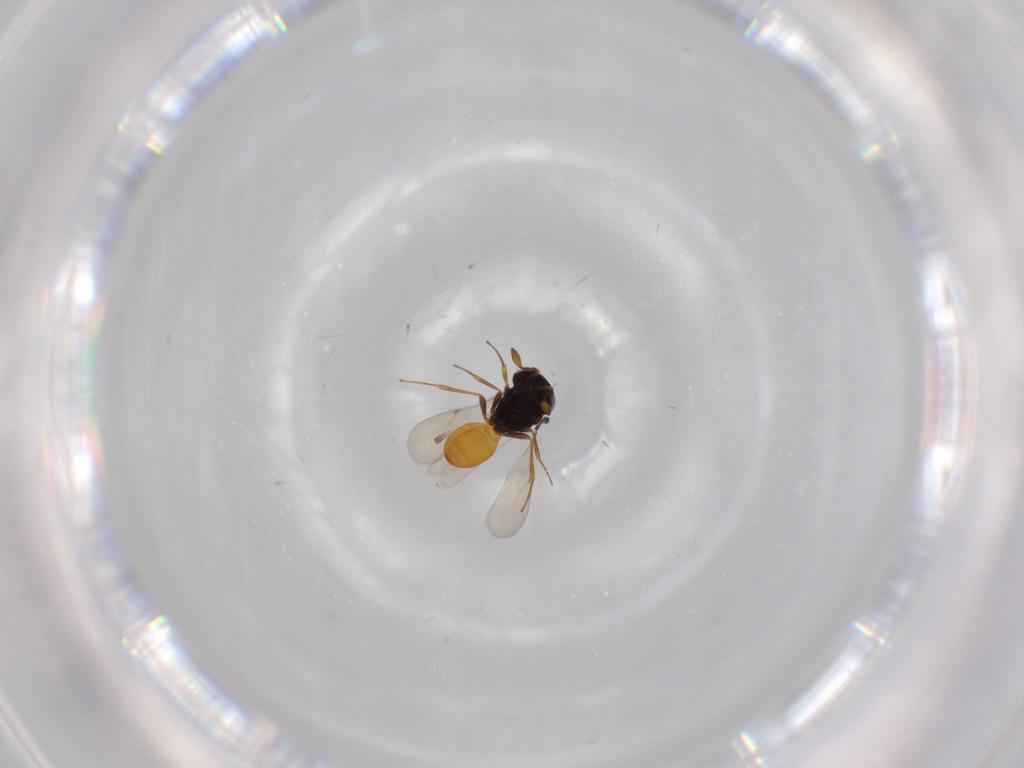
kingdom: Animalia
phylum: Arthropoda
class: Insecta
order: Hymenoptera
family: Scelionidae
